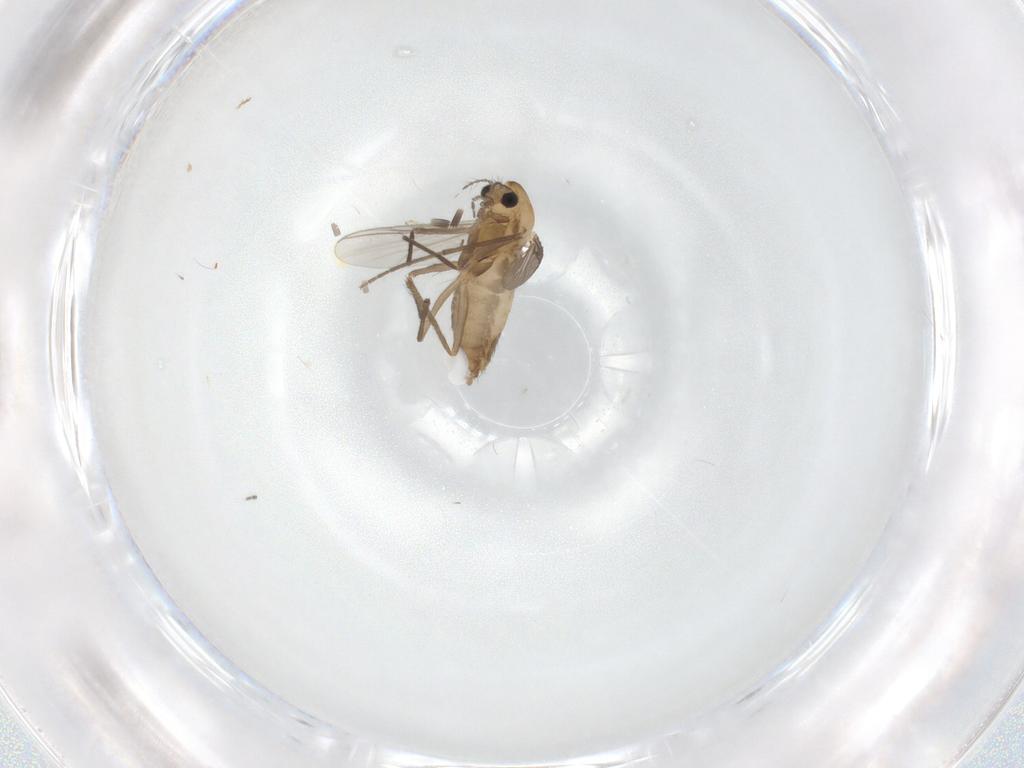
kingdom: Animalia
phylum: Arthropoda
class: Insecta
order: Diptera
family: Chironomidae
